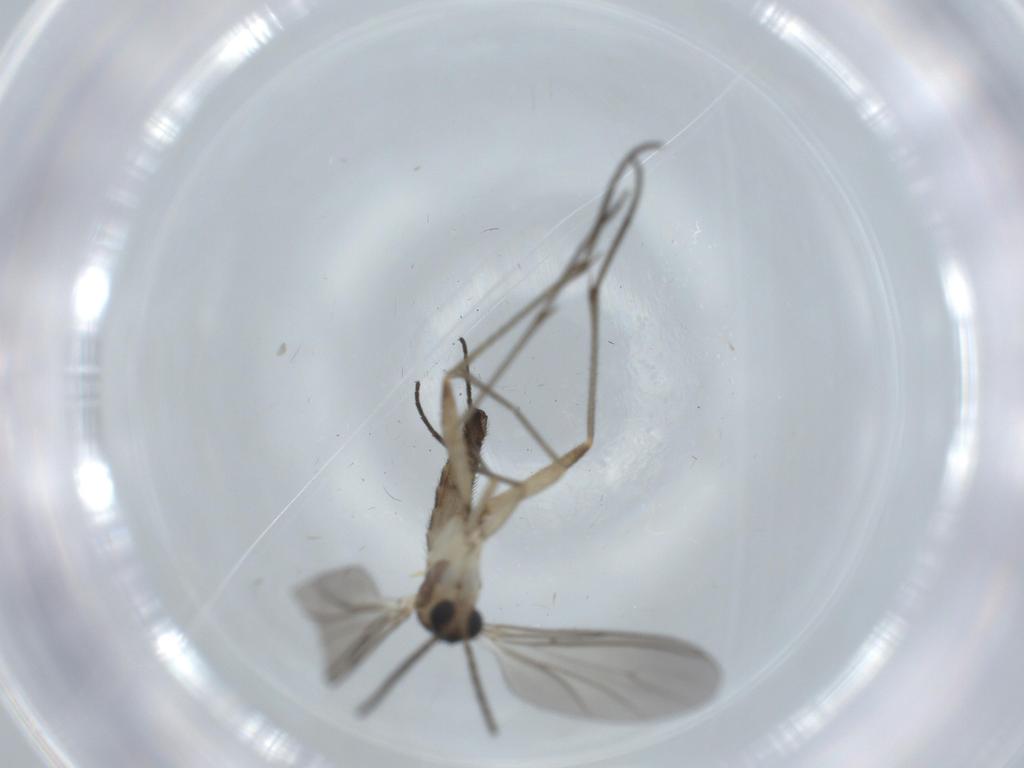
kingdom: Animalia
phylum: Arthropoda
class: Insecta
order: Diptera
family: Sciaridae
